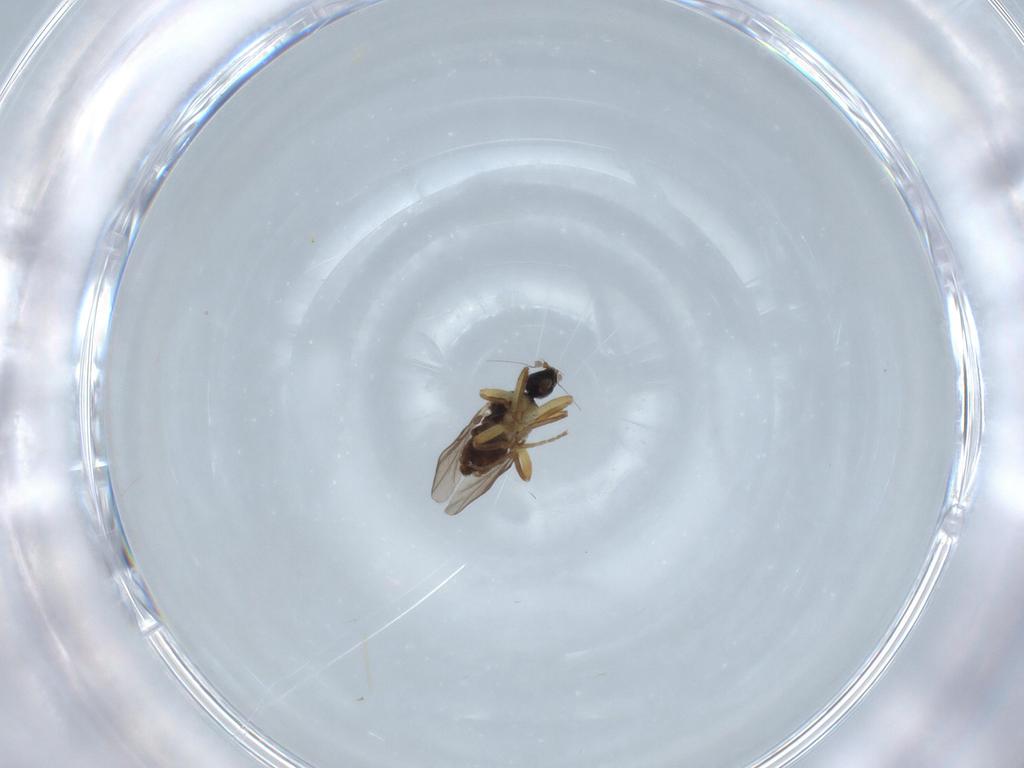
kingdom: Animalia
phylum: Arthropoda
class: Insecta
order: Diptera
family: Hybotidae
